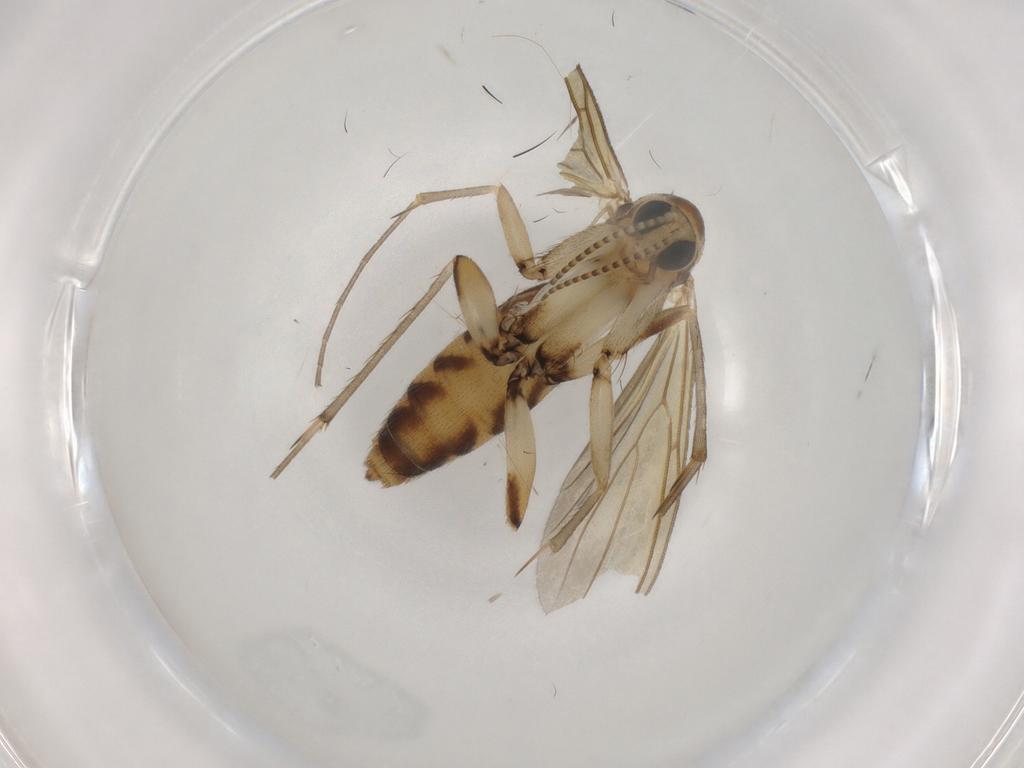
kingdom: Animalia
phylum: Arthropoda
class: Insecta
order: Diptera
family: Mycetophilidae
